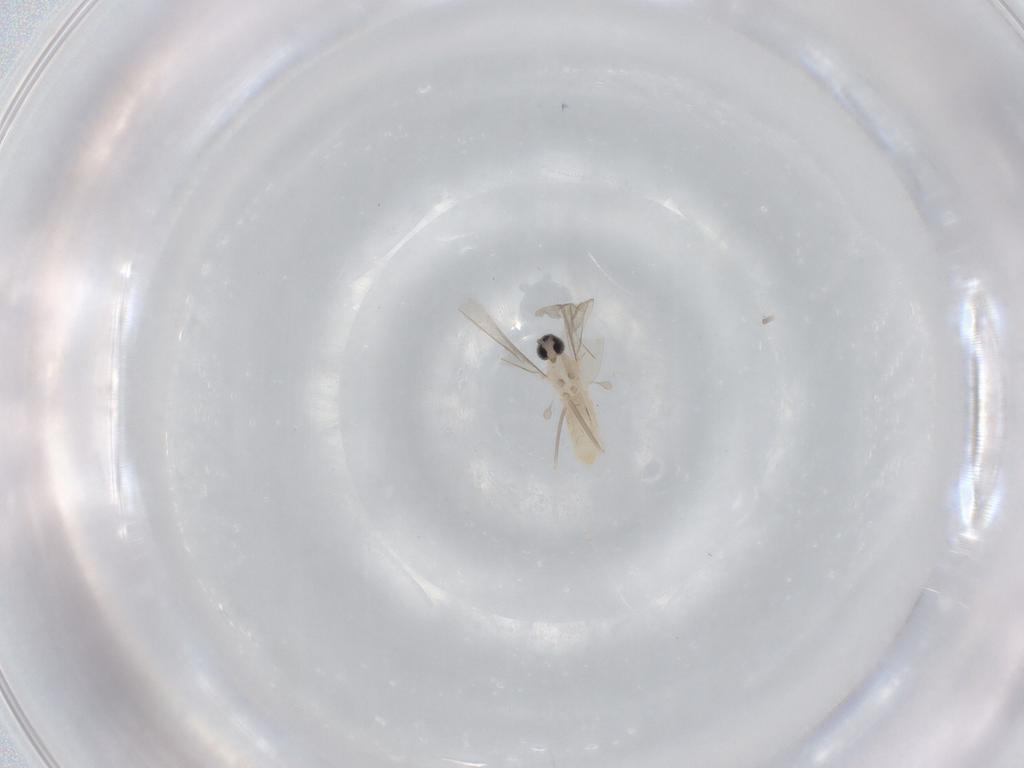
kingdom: Animalia
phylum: Arthropoda
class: Insecta
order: Diptera
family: Cecidomyiidae
